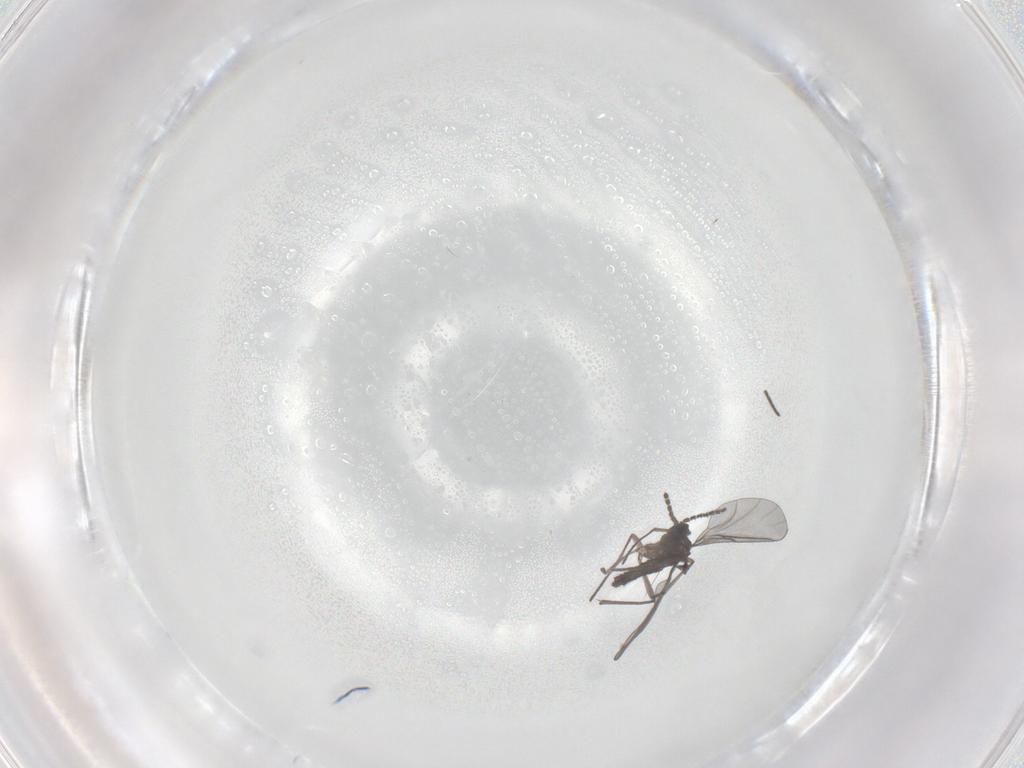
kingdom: Animalia
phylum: Arthropoda
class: Insecta
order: Diptera
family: Sciaridae
